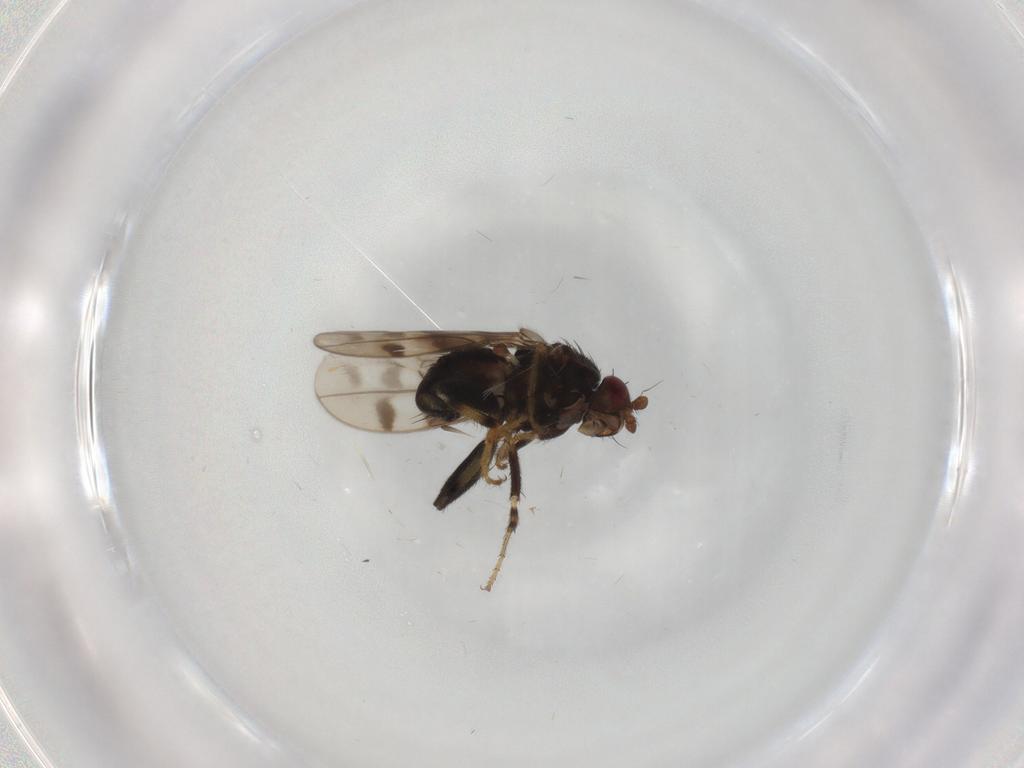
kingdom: Animalia
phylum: Arthropoda
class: Insecta
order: Diptera
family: Sphaeroceridae
